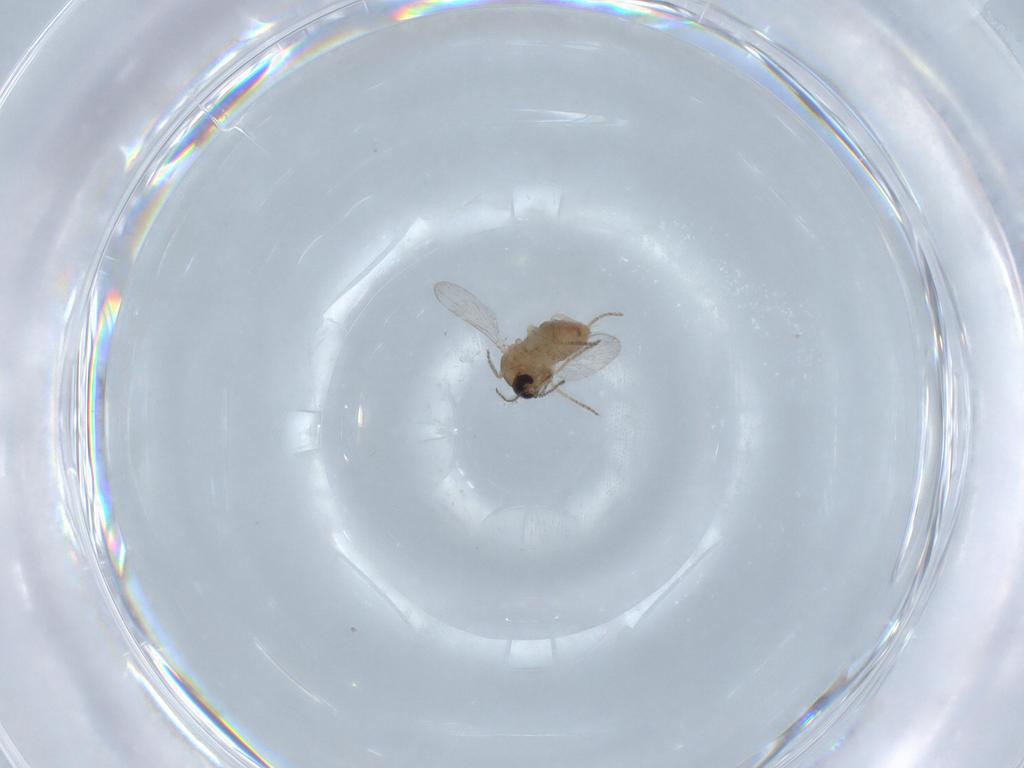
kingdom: Animalia
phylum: Arthropoda
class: Insecta
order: Diptera
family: Ceratopogonidae
